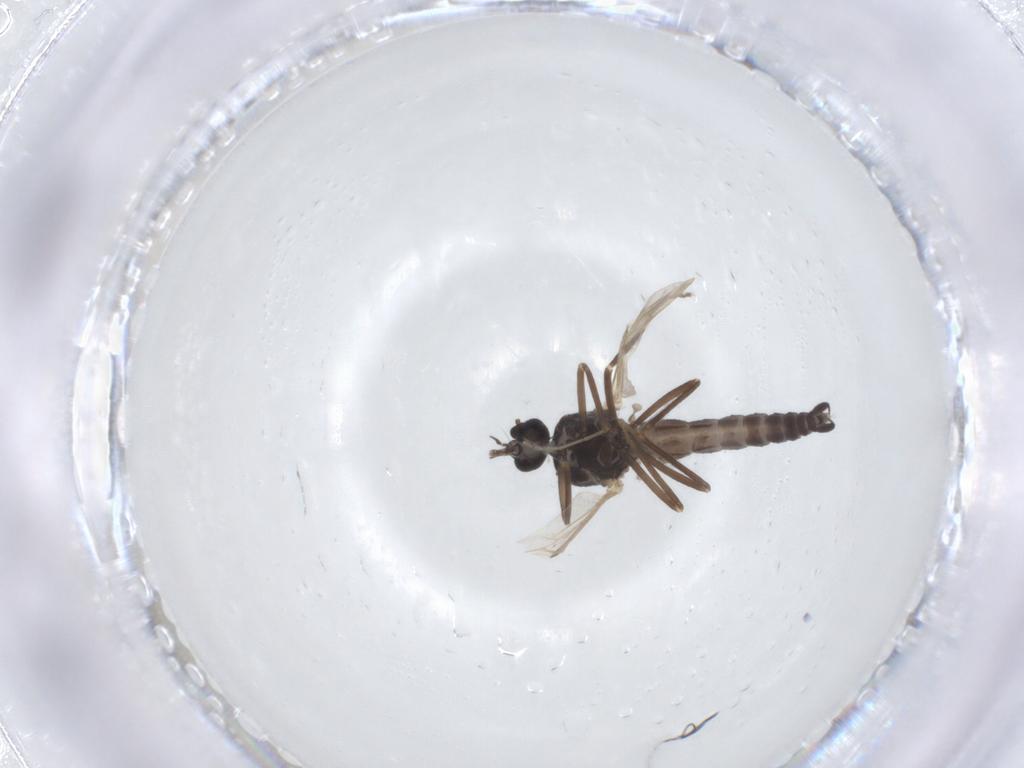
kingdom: Animalia
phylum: Arthropoda
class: Insecta
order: Diptera
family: Ceratopogonidae
